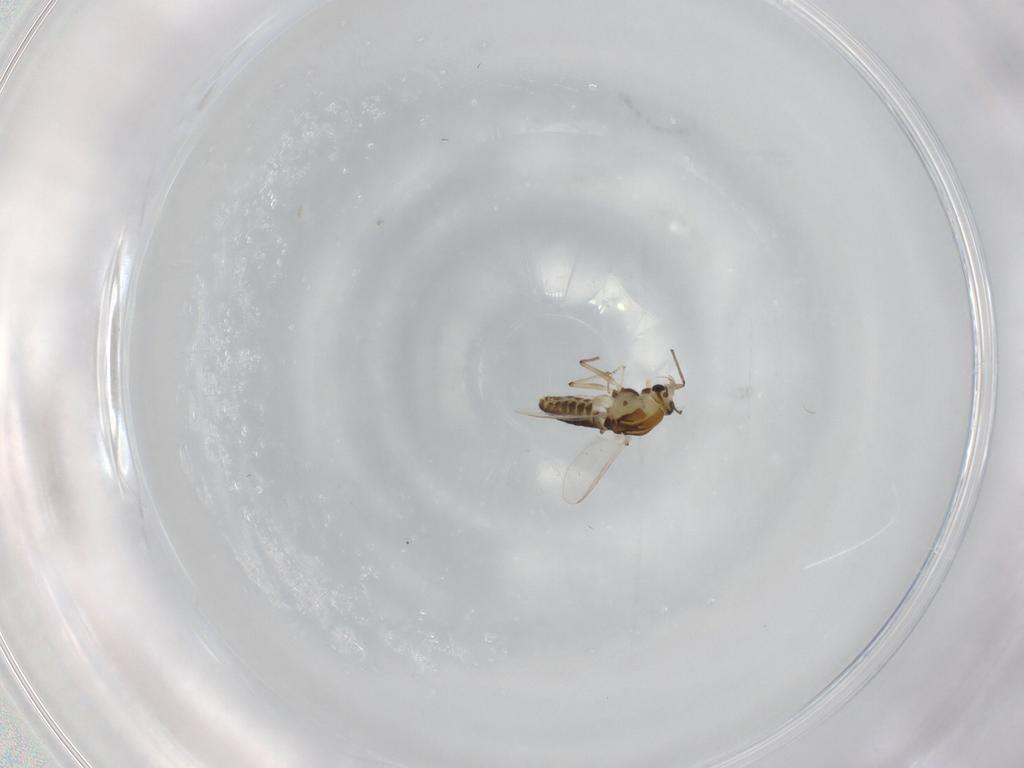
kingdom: Animalia
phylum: Arthropoda
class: Insecta
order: Diptera
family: Chironomidae
